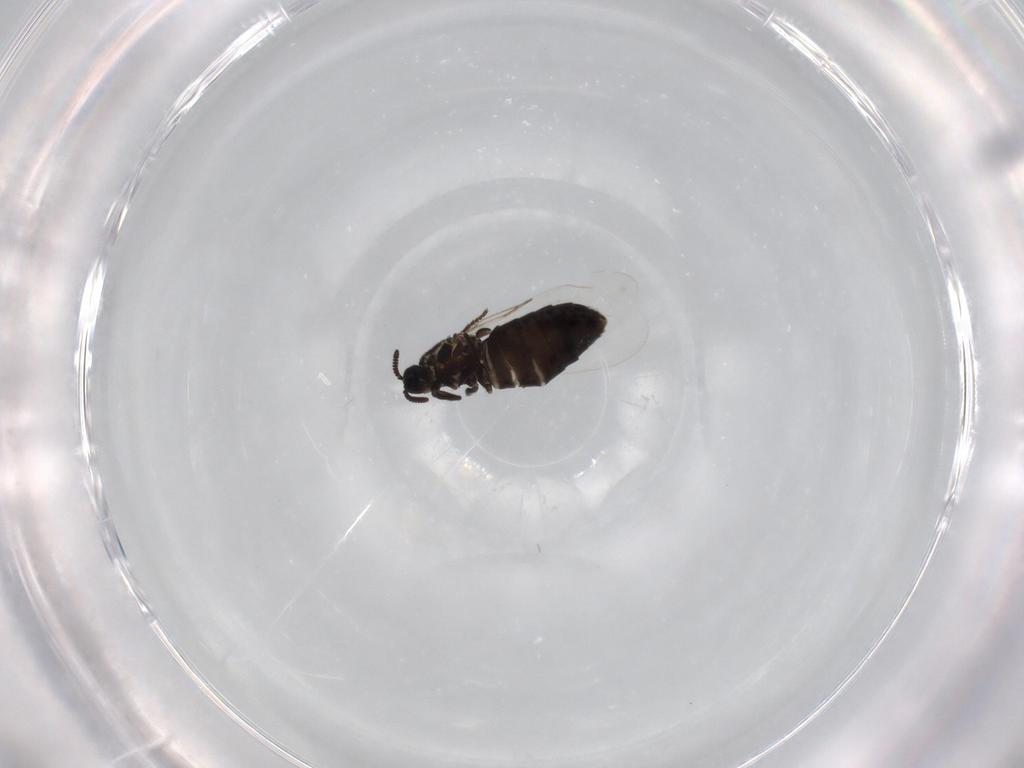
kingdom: Animalia
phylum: Arthropoda
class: Insecta
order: Diptera
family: Scatopsidae
